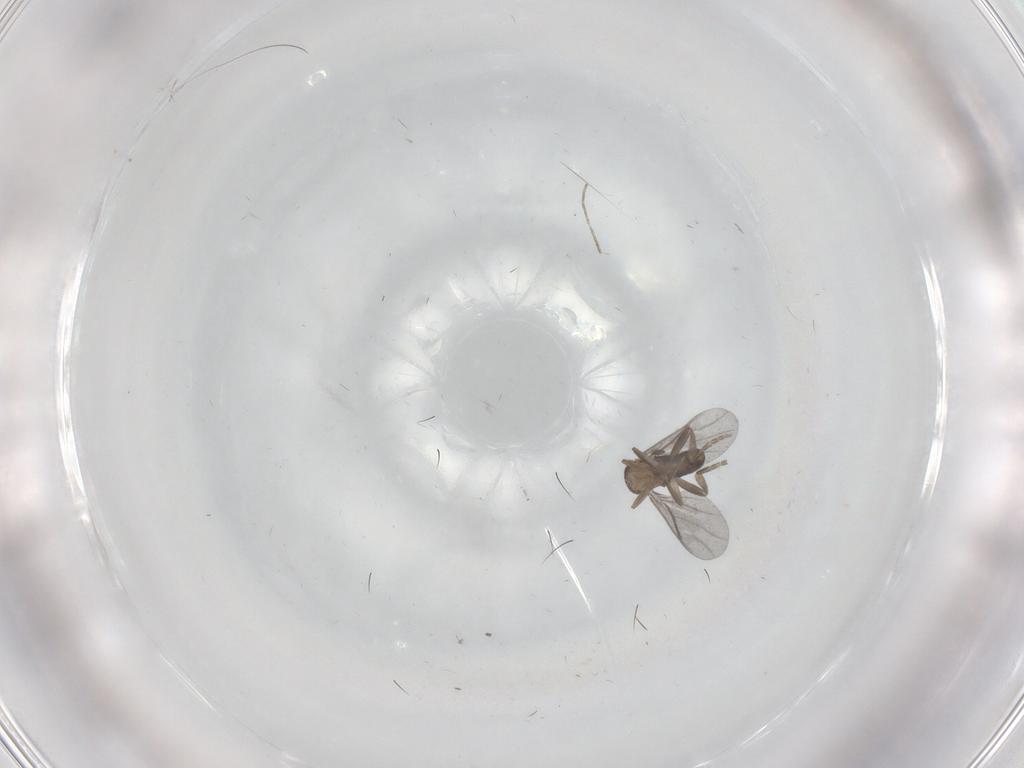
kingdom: Animalia
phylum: Arthropoda
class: Insecta
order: Diptera
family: Ceratopogonidae
